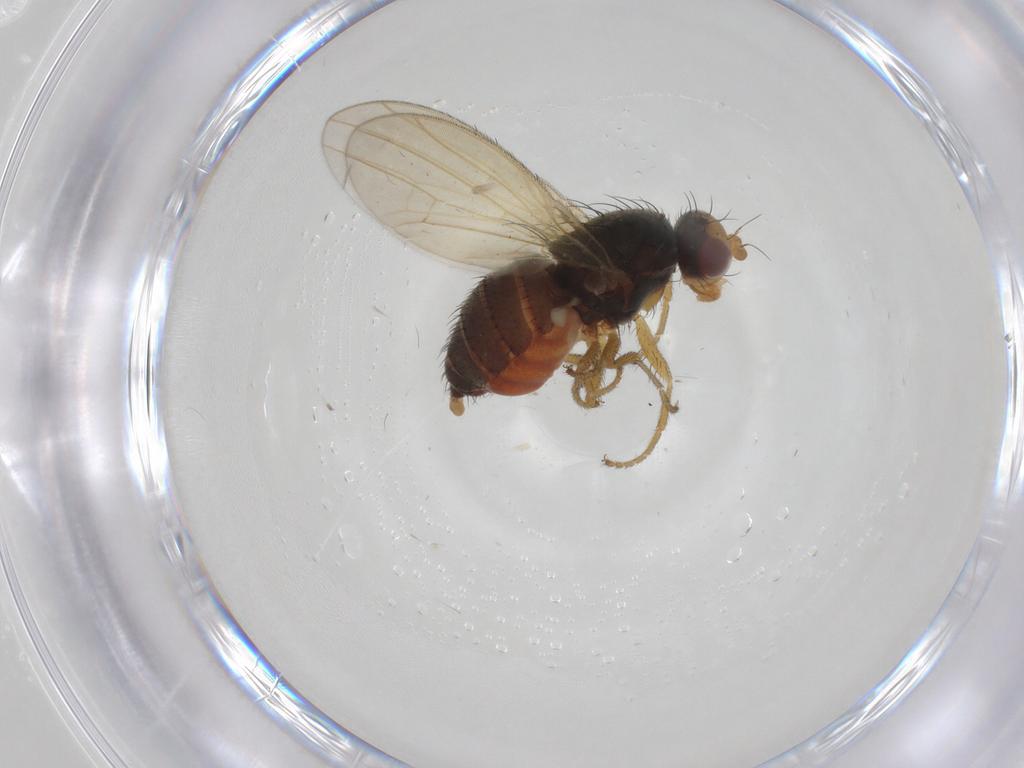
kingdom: Animalia
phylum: Arthropoda
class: Insecta
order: Diptera
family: Heleomyzidae
